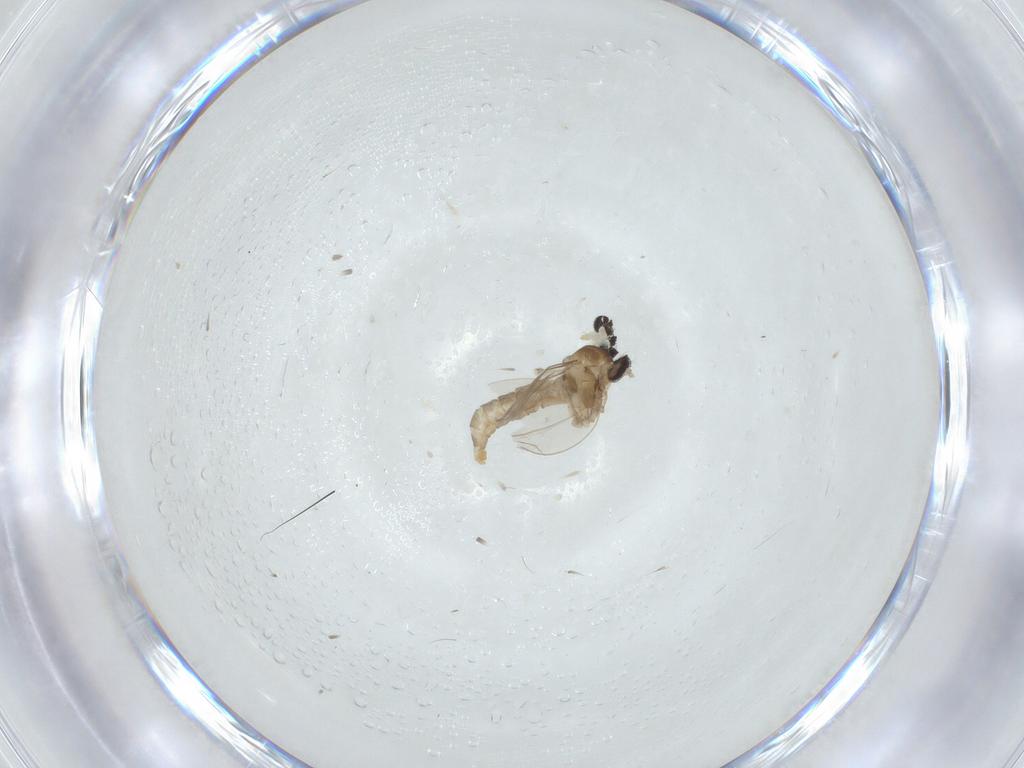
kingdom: Animalia
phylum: Arthropoda
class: Insecta
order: Diptera
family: Cecidomyiidae
